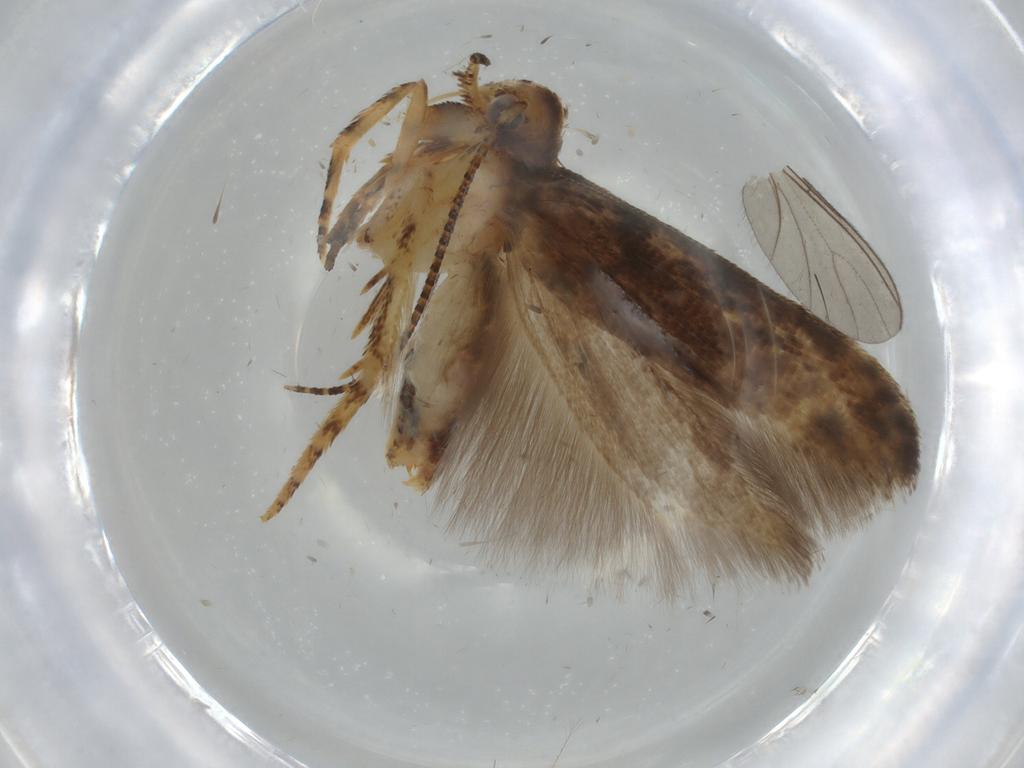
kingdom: Animalia
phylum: Arthropoda
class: Insecta
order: Lepidoptera
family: Gelechiidae
